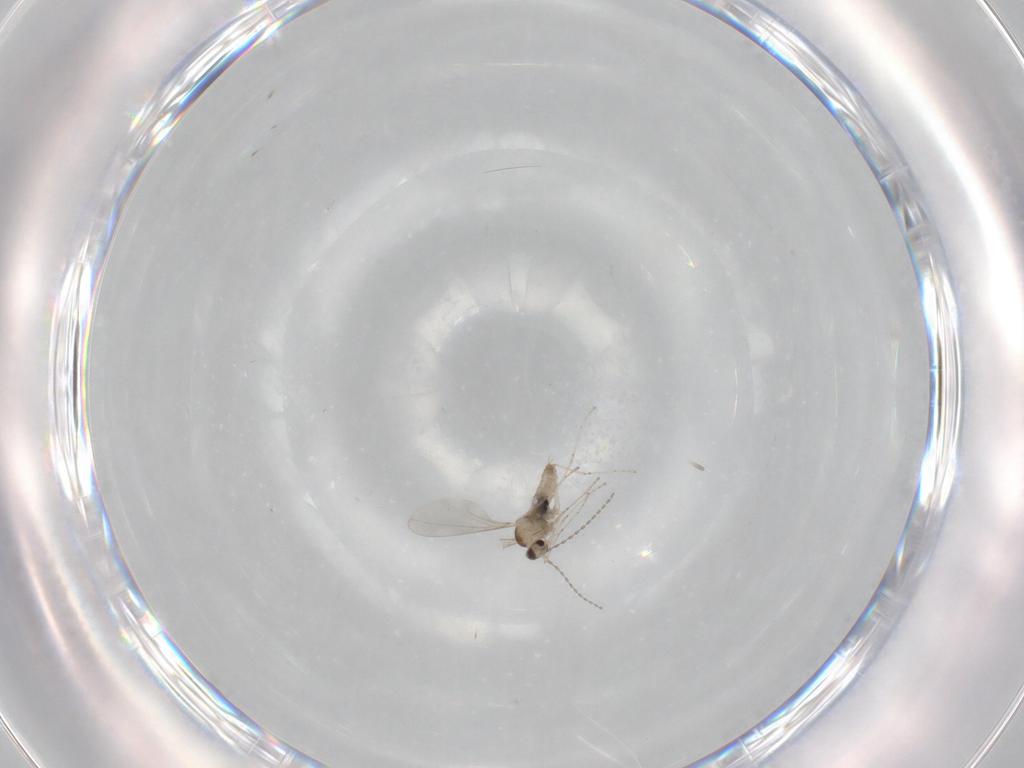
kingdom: Animalia
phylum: Arthropoda
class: Insecta
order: Diptera
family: Cecidomyiidae
